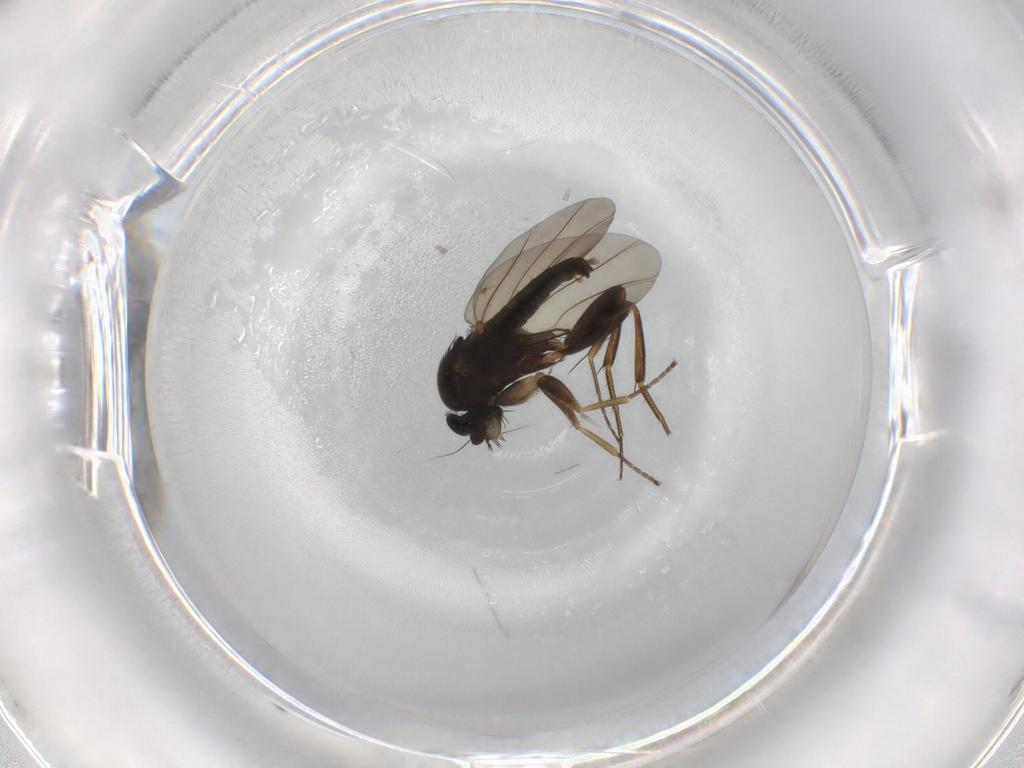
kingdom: Animalia
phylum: Arthropoda
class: Insecta
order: Diptera
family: Phoridae
